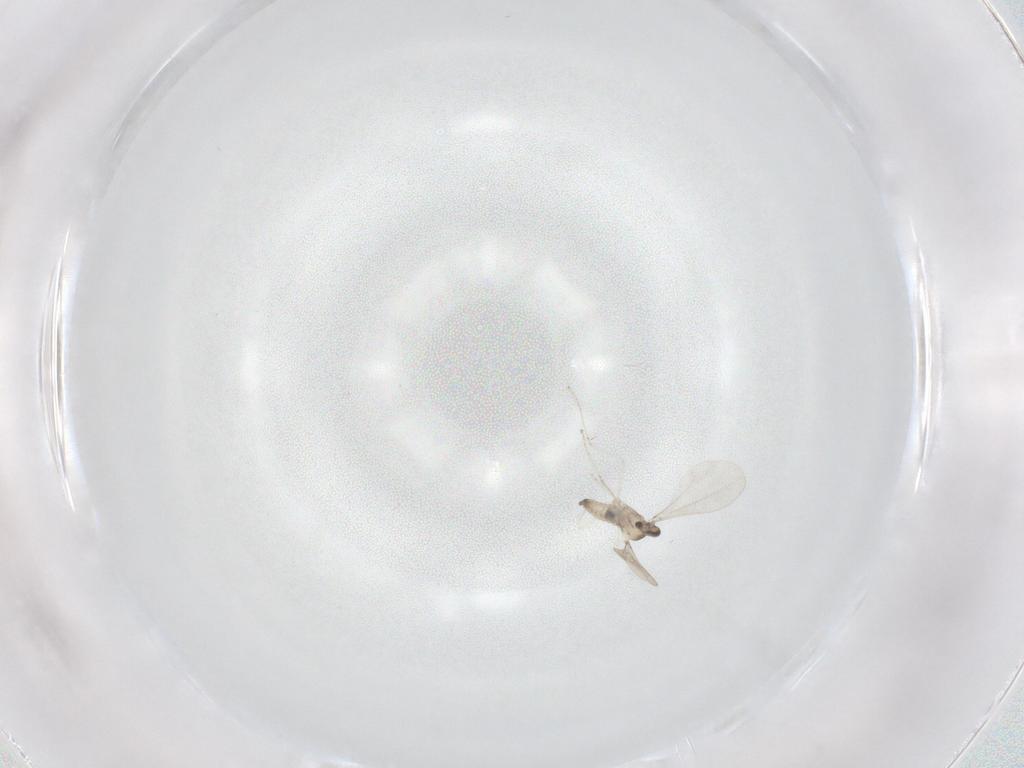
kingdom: Animalia
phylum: Arthropoda
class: Insecta
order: Diptera
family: Cecidomyiidae
